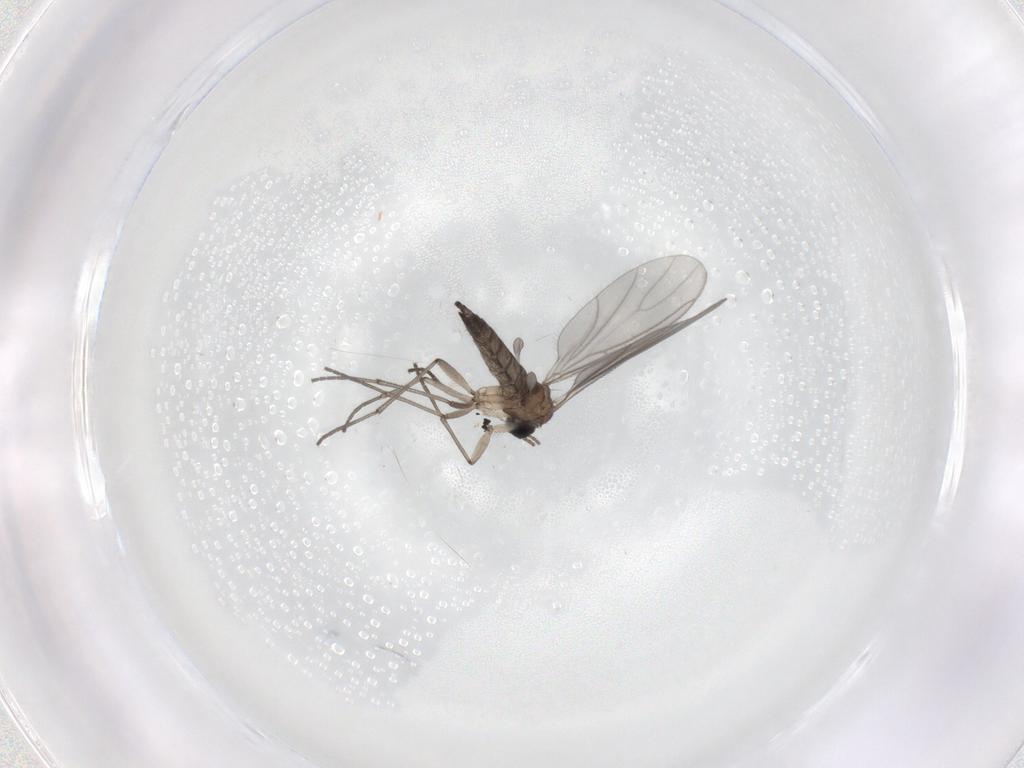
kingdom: Animalia
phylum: Arthropoda
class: Insecta
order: Diptera
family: Sciaridae
